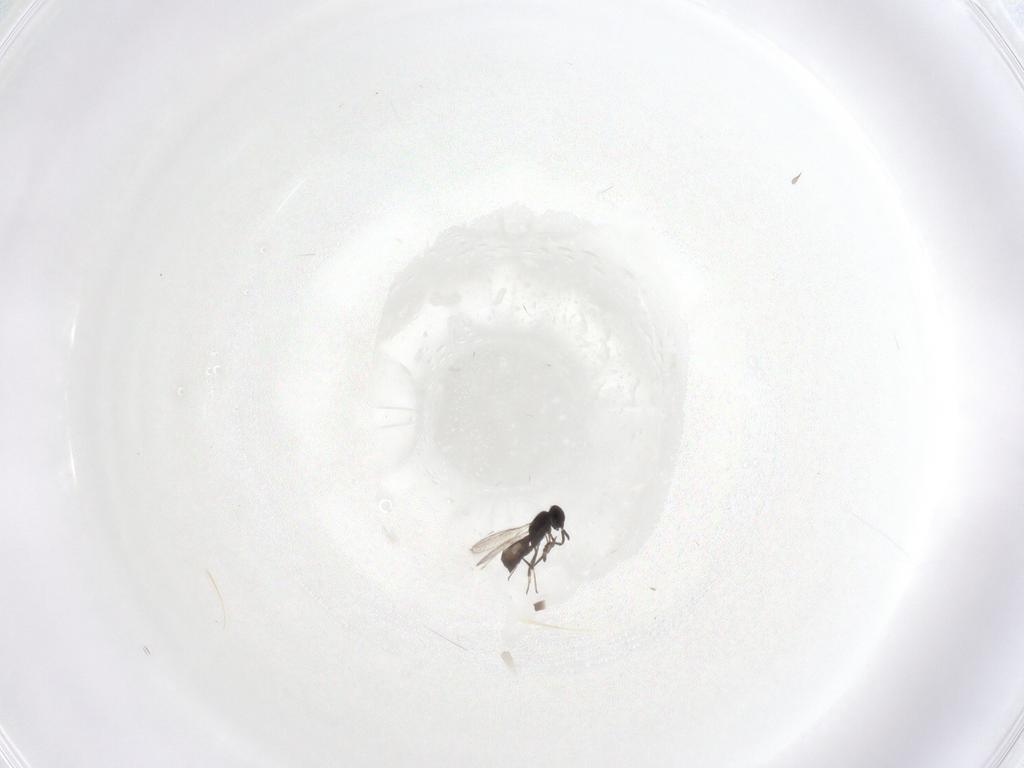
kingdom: Animalia
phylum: Arthropoda
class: Insecta
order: Hymenoptera
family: Scelionidae
